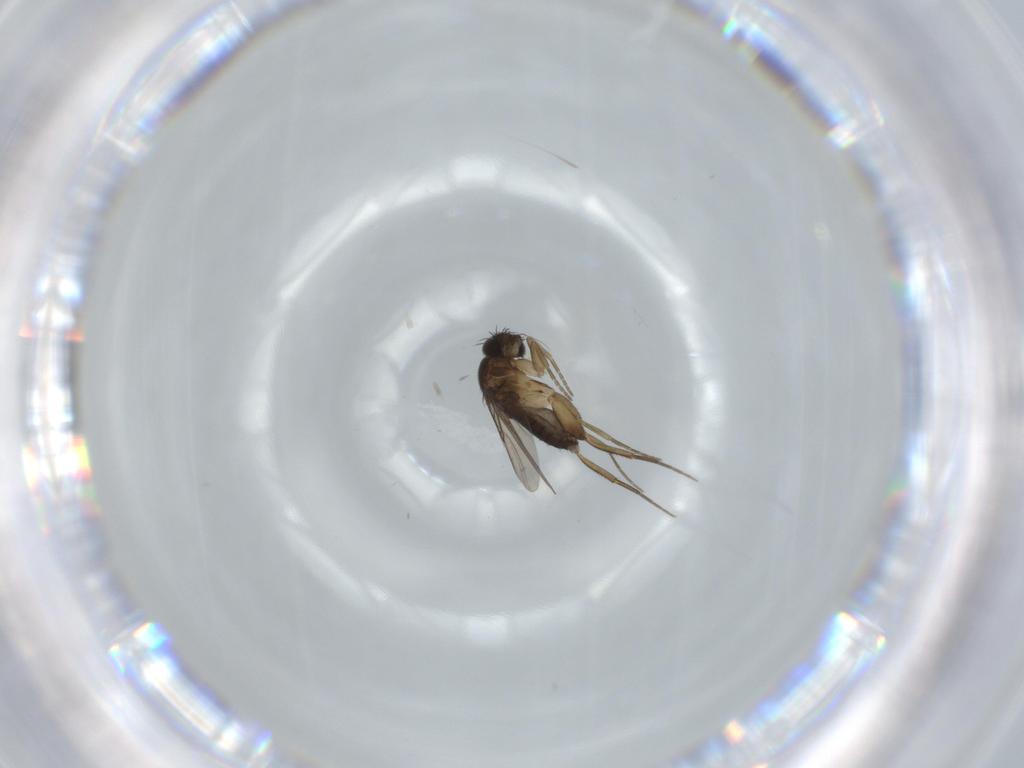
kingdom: Animalia
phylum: Arthropoda
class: Insecta
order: Diptera
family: Phoridae
